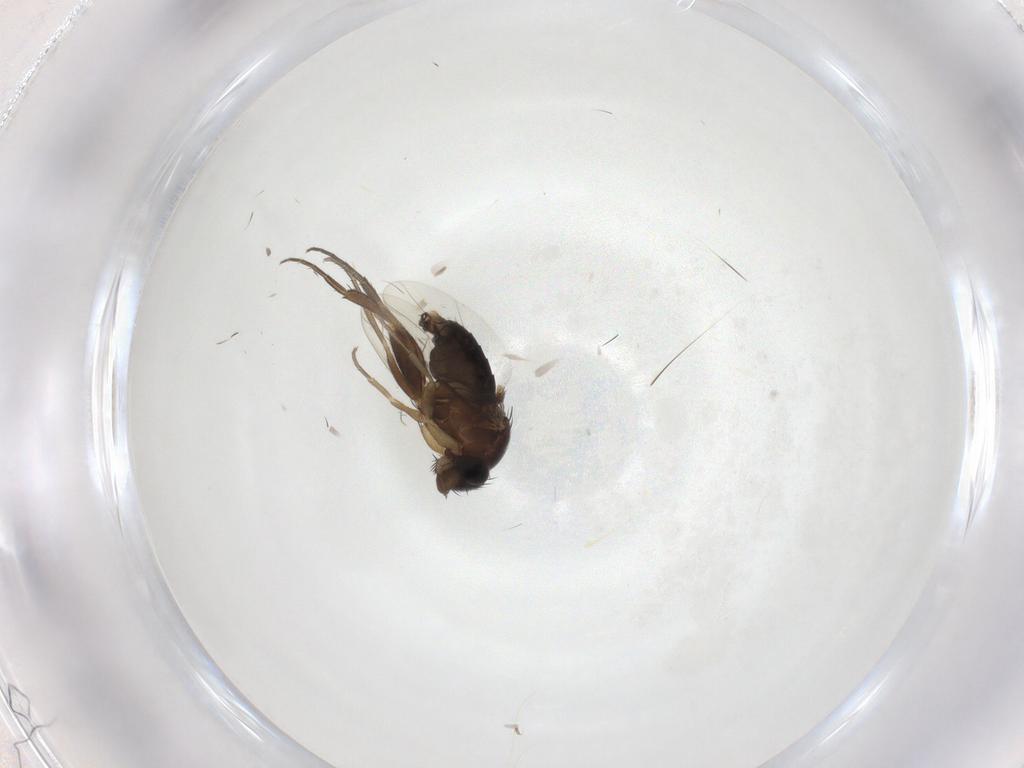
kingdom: Animalia
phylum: Arthropoda
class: Insecta
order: Diptera
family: Phoridae
